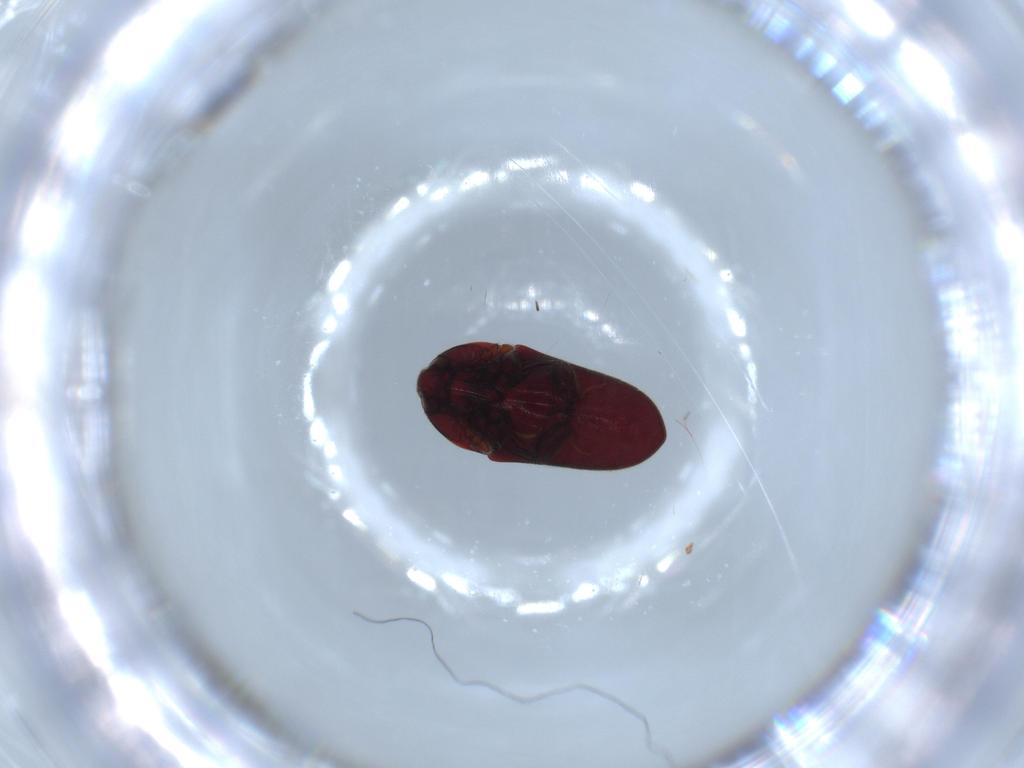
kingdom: Animalia
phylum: Arthropoda
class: Insecta
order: Coleoptera
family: Throscidae
